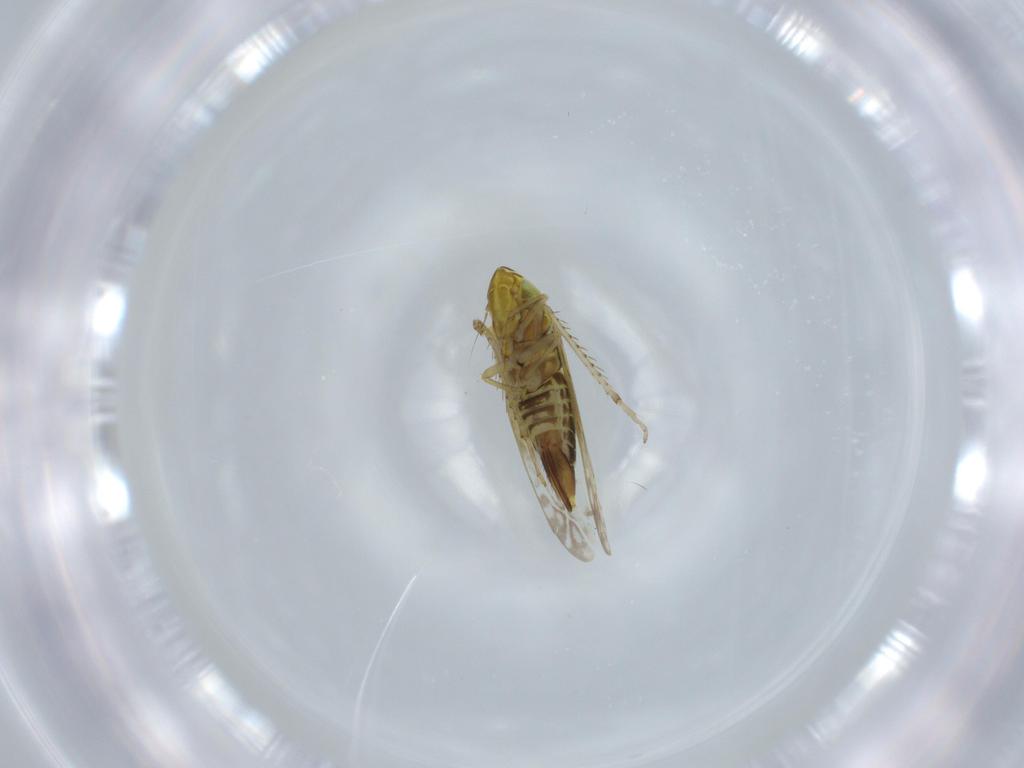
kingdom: Animalia
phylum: Arthropoda
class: Insecta
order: Hemiptera
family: Cicadellidae
